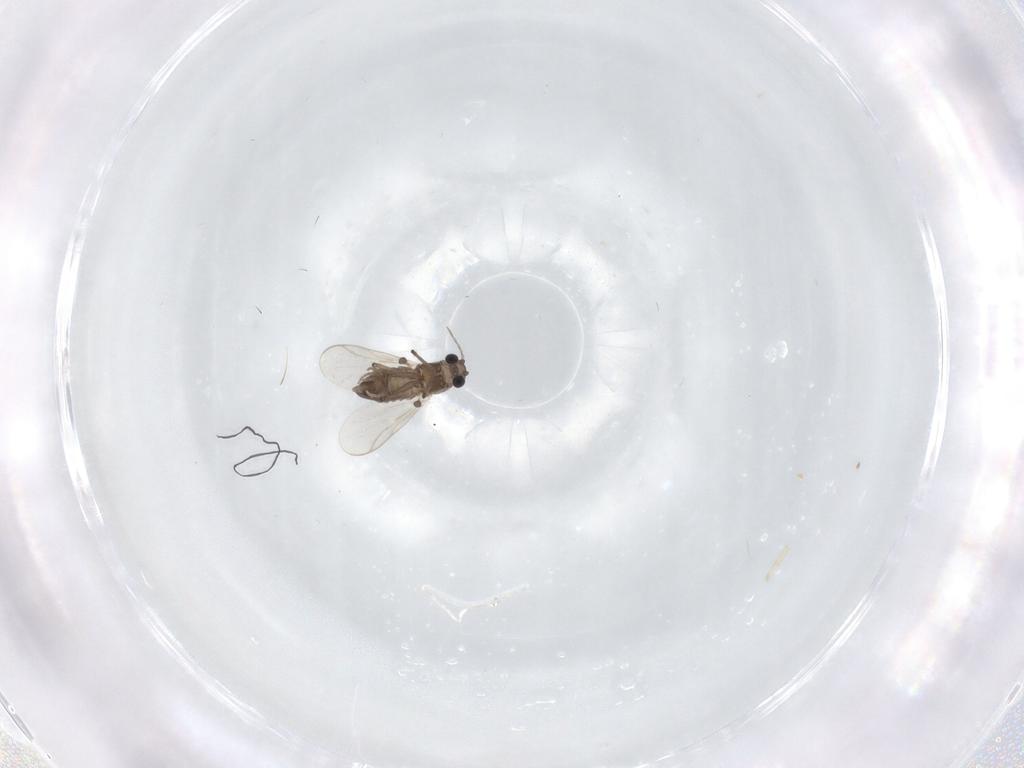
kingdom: Animalia
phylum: Arthropoda
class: Insecta
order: Diptera
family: Chironomidae
